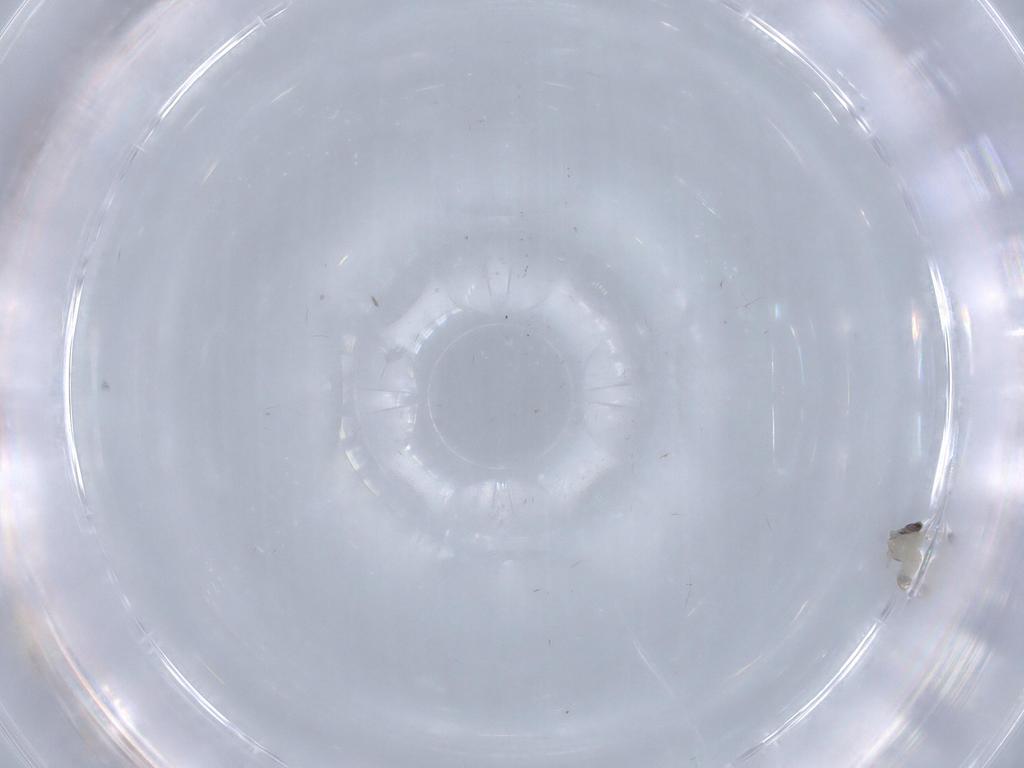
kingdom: Animalia
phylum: Arthropoda
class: Insecta
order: Diptera
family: Cecidomyiidae
